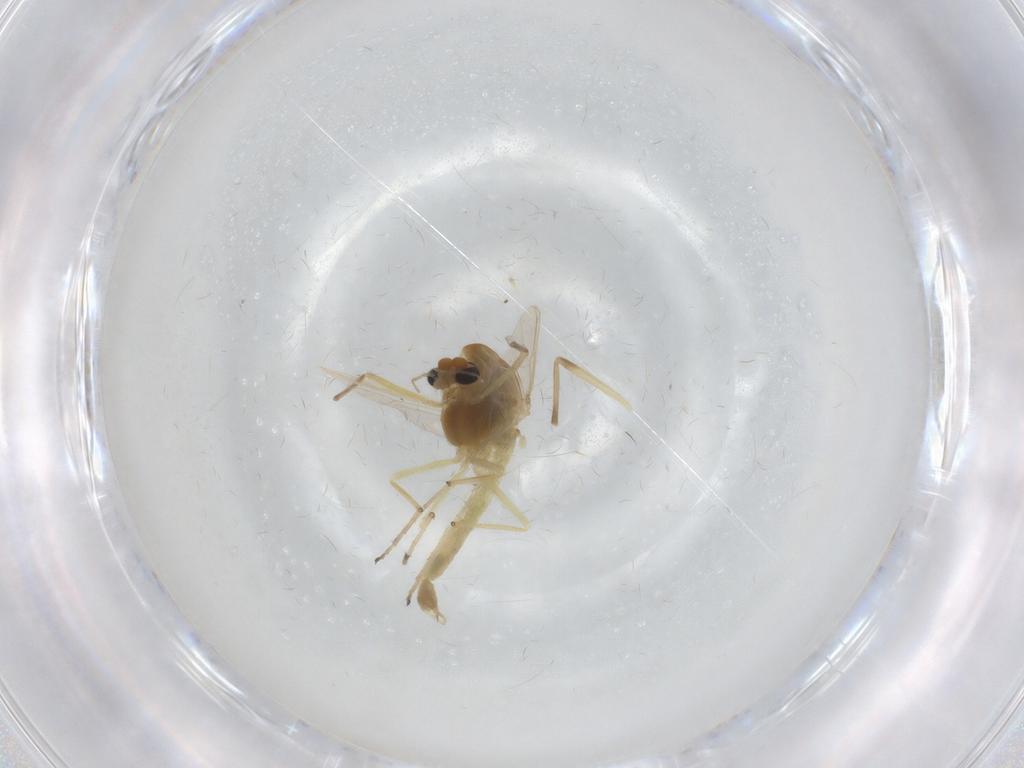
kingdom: Animalia
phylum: Arthropoda
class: Insecta
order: Diptera
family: Chironomidae
